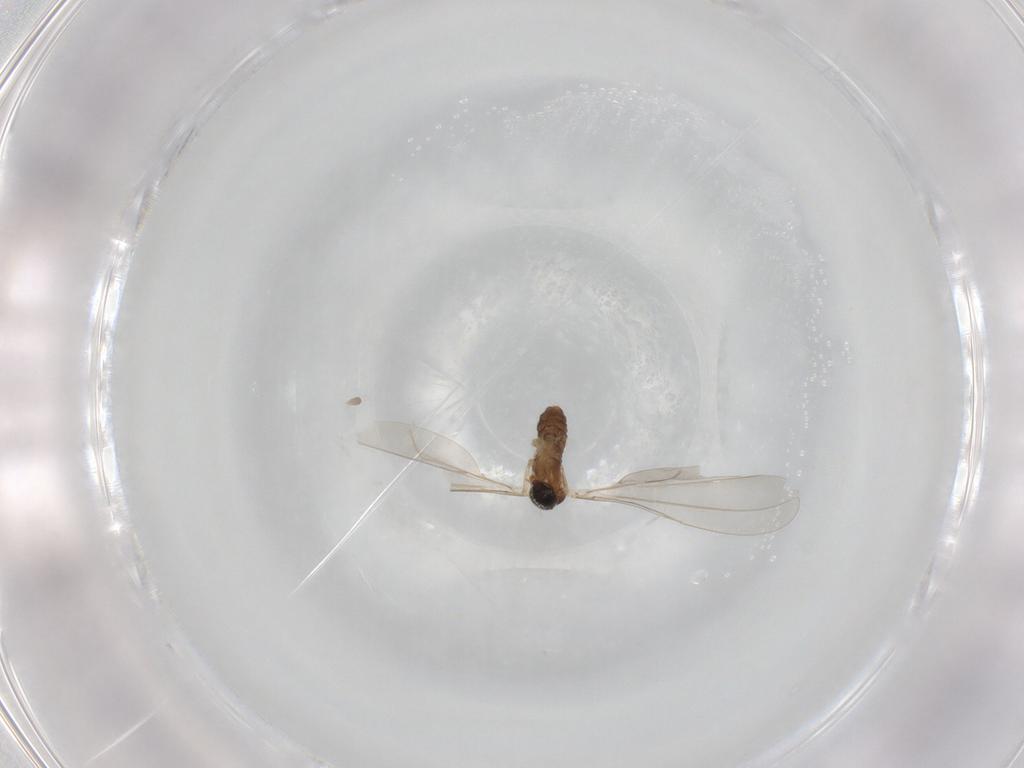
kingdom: Animalia
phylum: Arthropoda
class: Insecta
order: Diptera
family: Cecidomyiidae
